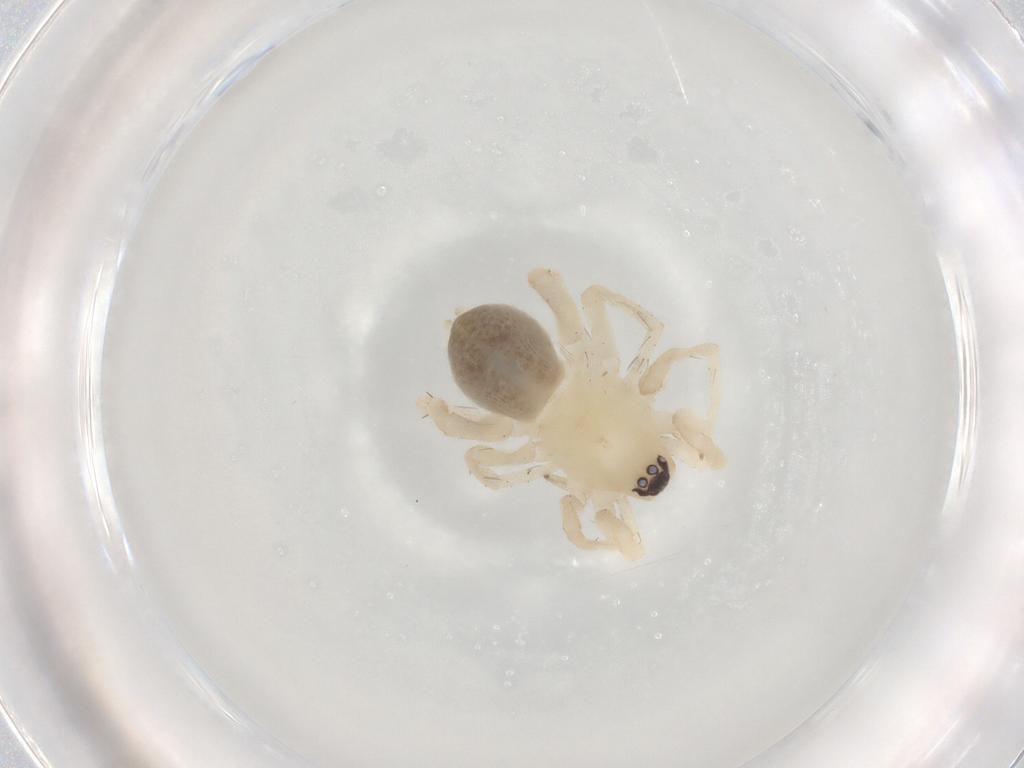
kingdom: Animalia
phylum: Arthropoda
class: Arachnida
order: Araneae
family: Gnaphosidae
